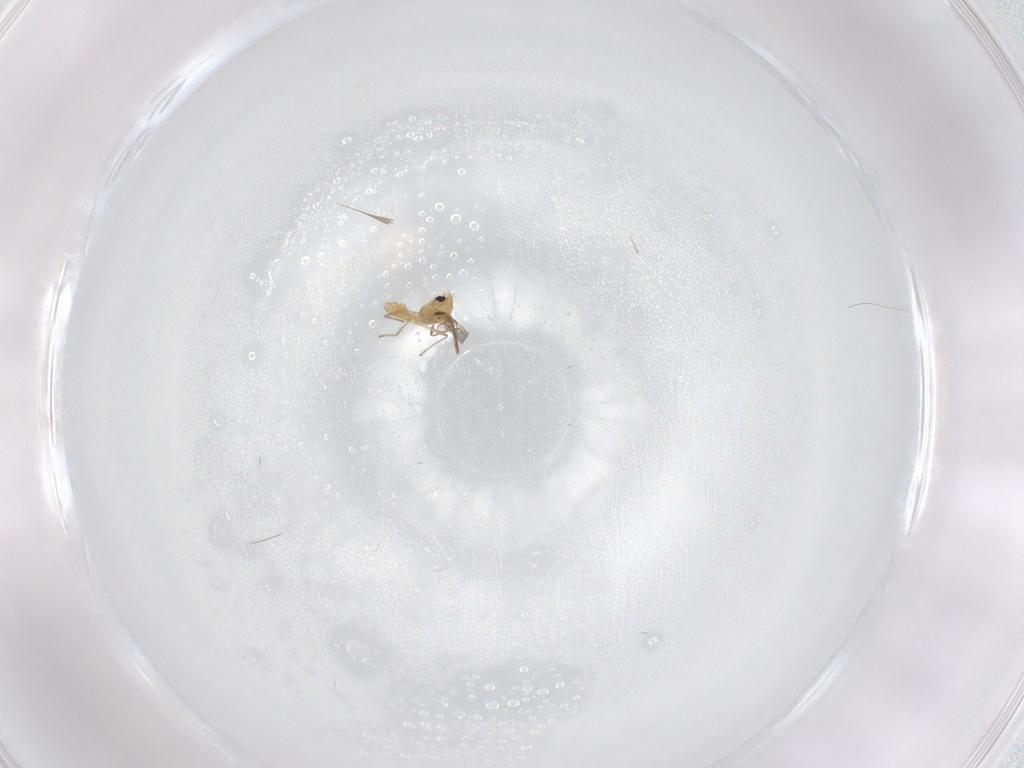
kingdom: Animalia
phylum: Arthropoda
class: Insecta
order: Diptera
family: Chironomidae
